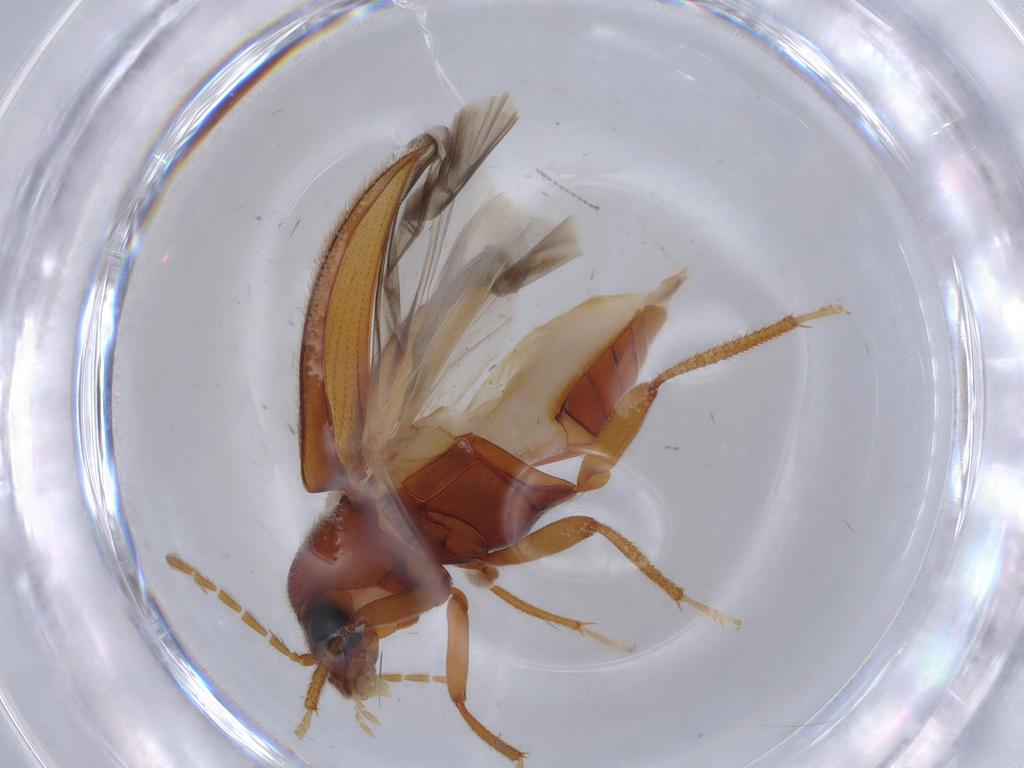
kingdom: Animalia
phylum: Arthropoda
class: Insecta
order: Coleoptera
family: Ptilodactylidae
